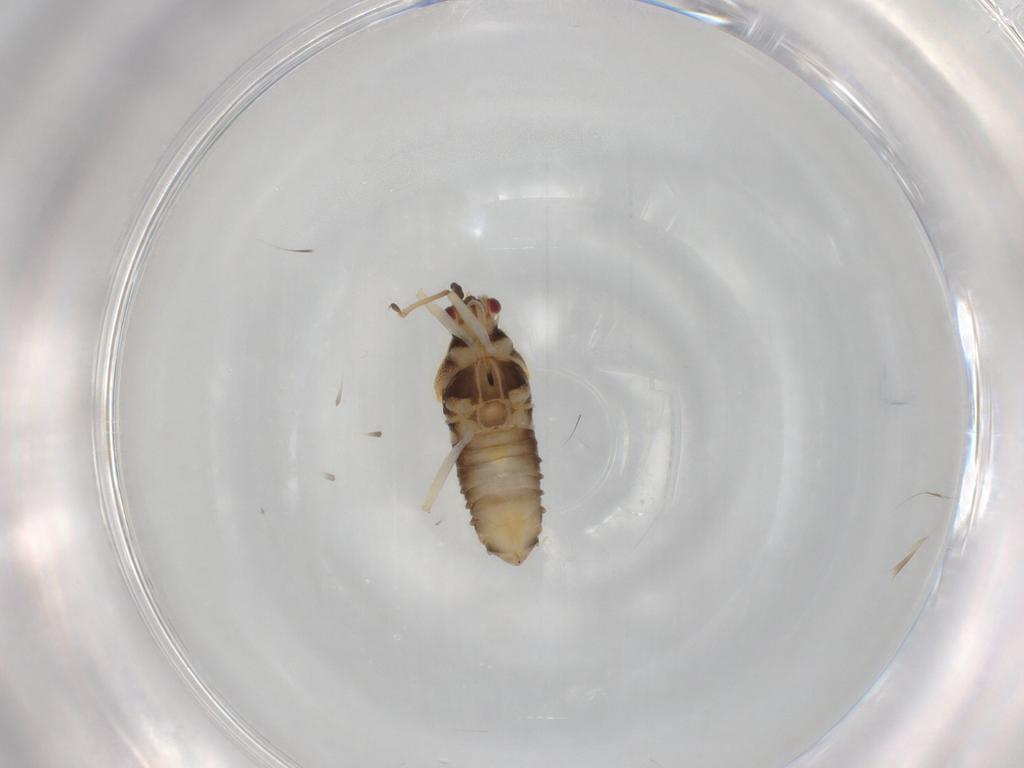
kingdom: Animalia
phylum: Arthropoda
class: Insecta
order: Hemiptera
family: Tingidae
